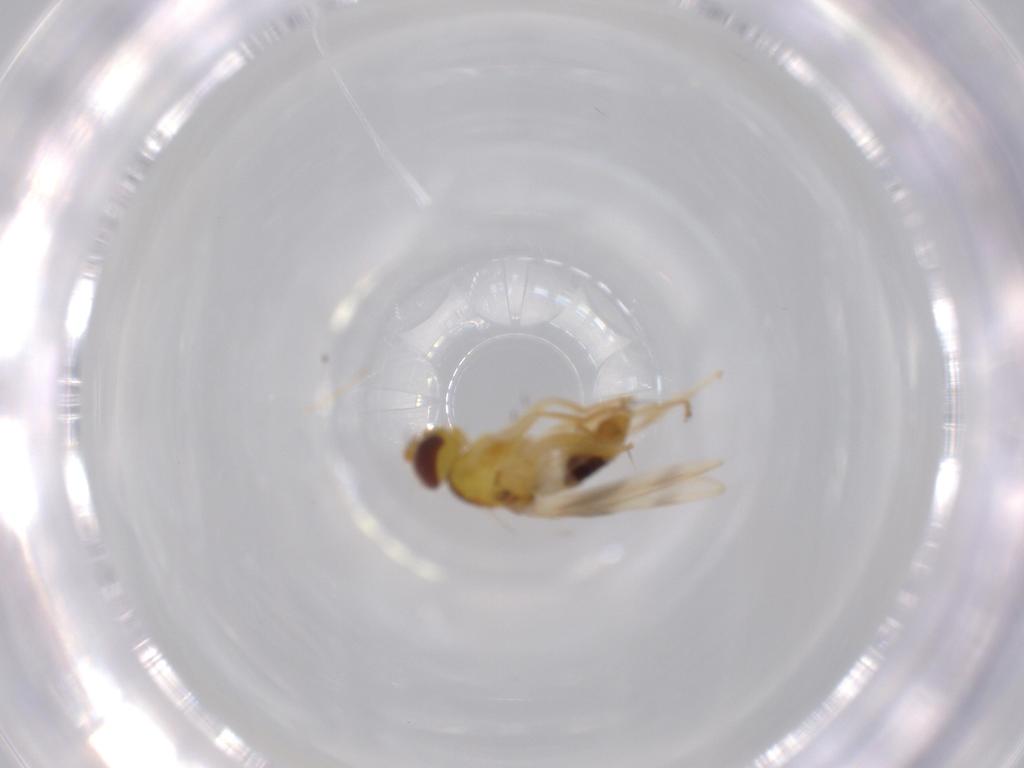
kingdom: Animalia
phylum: Arthropoda
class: Insecta
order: Diptera
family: Periscelididae
